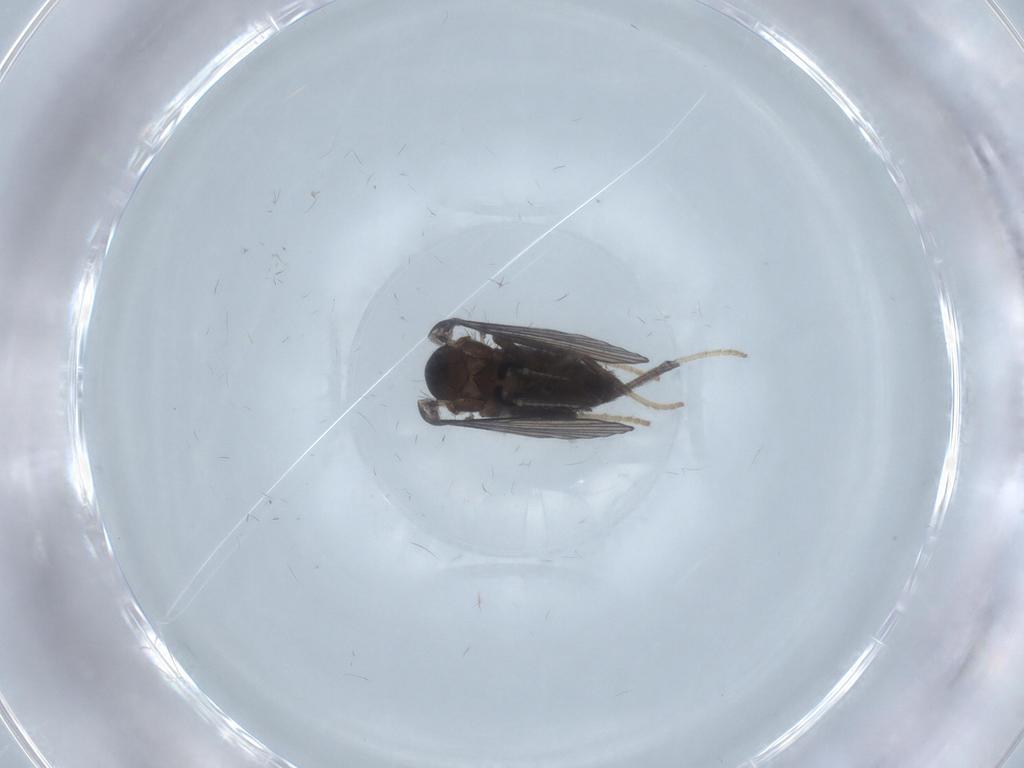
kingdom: Animalia
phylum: Arthropoda
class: Insecta
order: Diptera
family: Psychodidae
